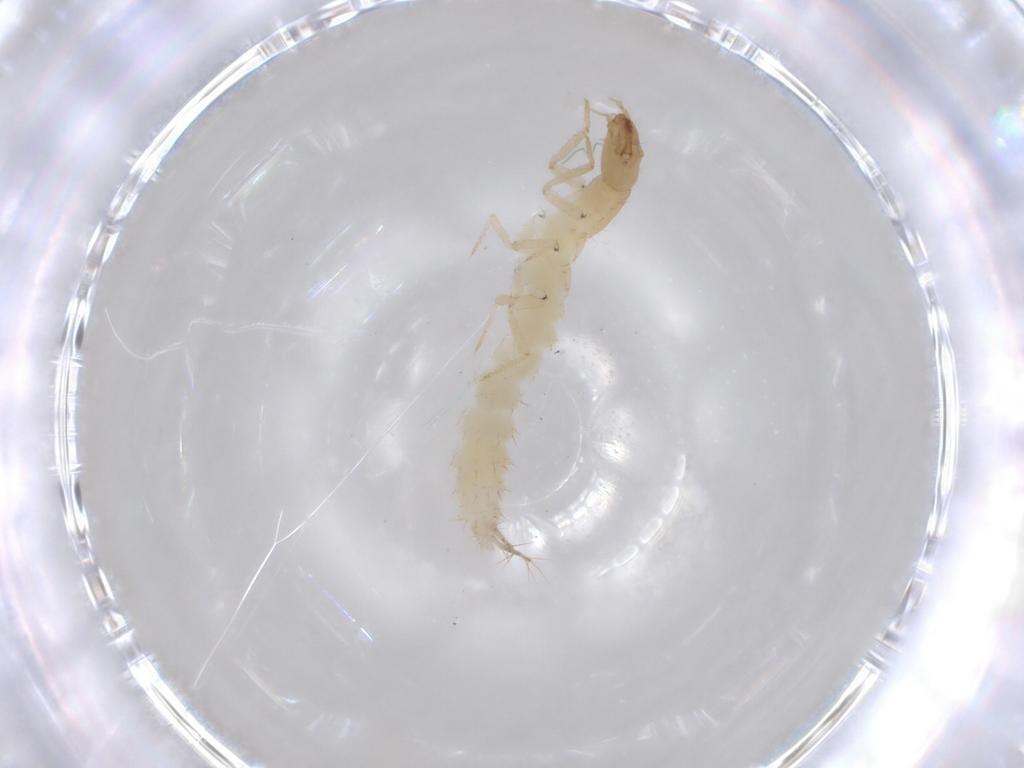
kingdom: Animalia
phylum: Arthropoda
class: Insecta
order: Coleoptera
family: Staphylinidae
